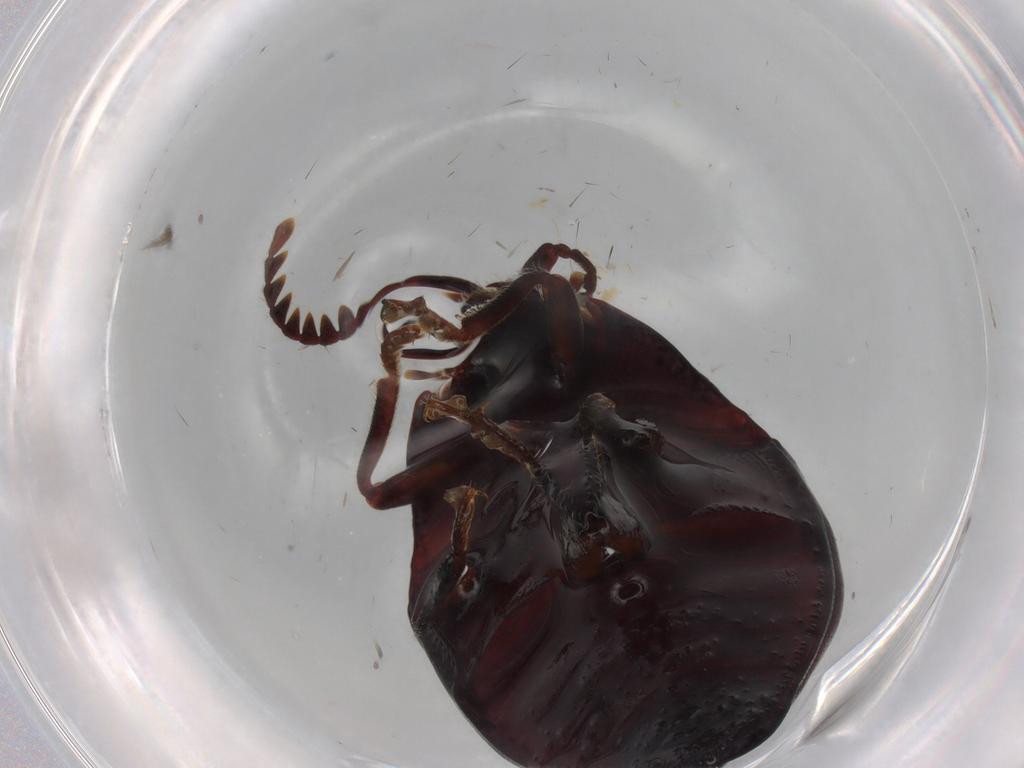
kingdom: Animalia
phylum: Arthropoda
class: Insecta
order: Coleoptera
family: Elateridae
